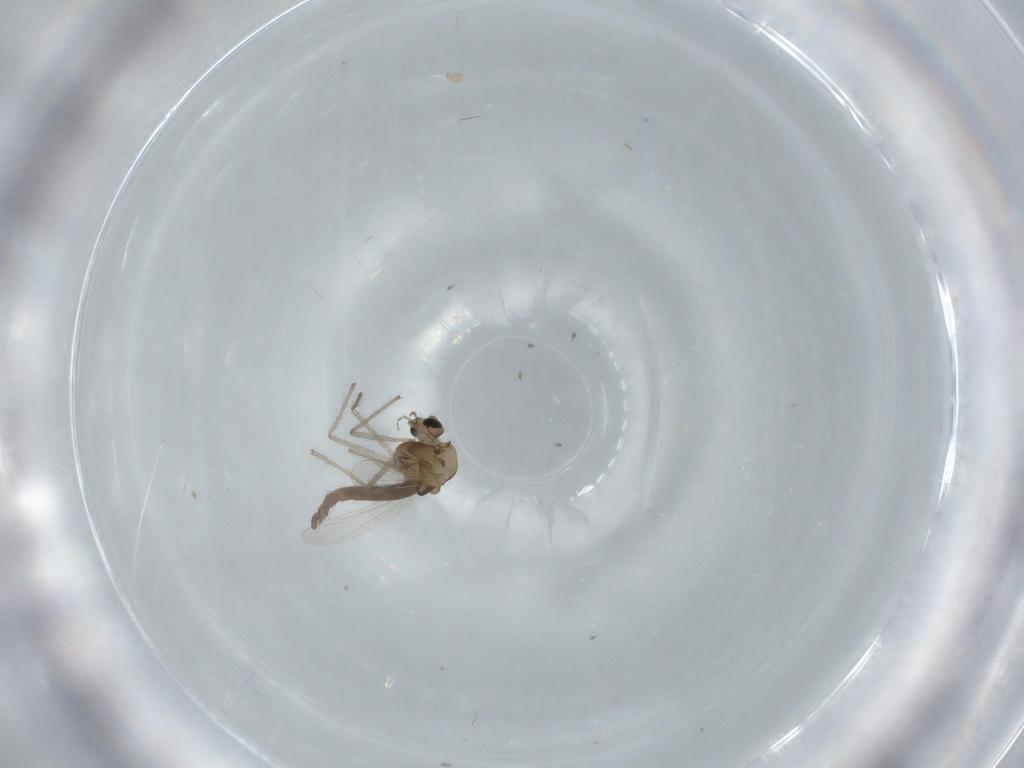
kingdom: Animalia
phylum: Arthropoda
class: Insecta
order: Diptera
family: Chironomidae
